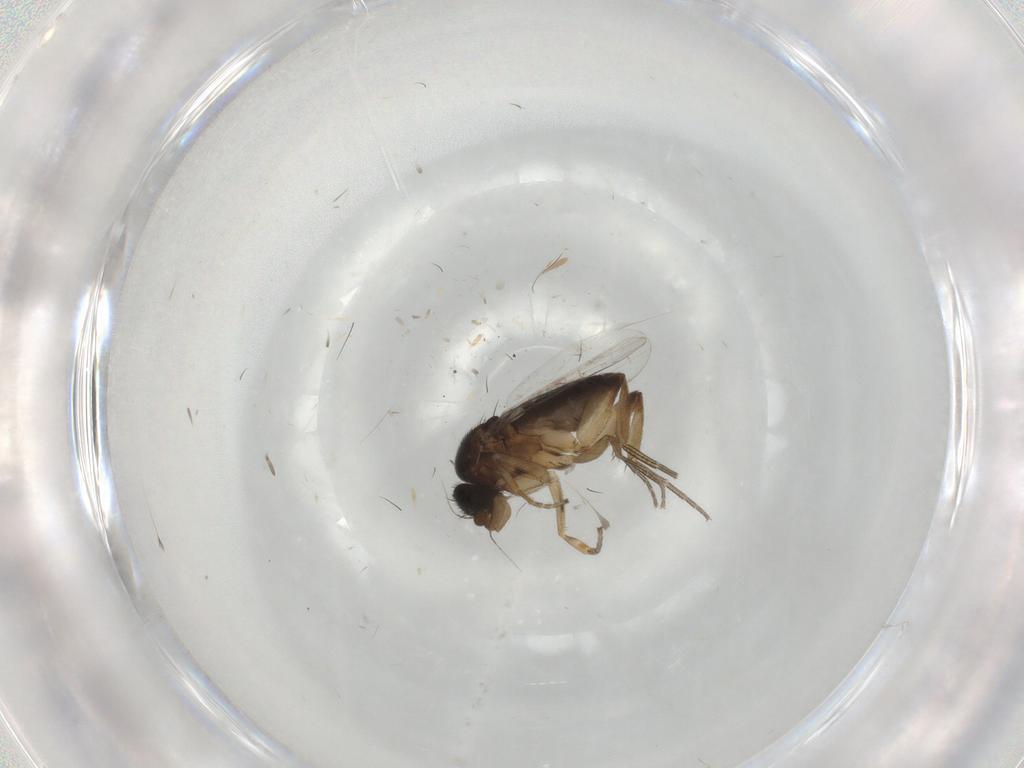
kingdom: Animalia
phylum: Arthropoda
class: Insecta
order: Diptera
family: Phoridae
